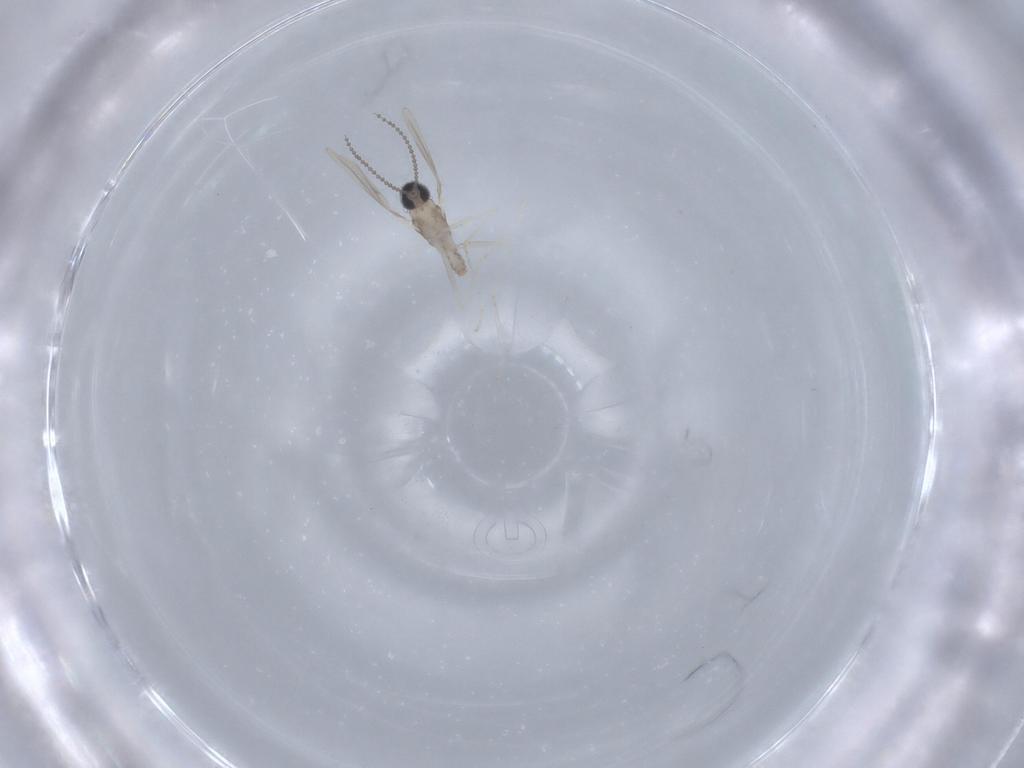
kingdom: Animalia
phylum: Arthropoda
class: Insecta
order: Diptera
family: Cecidomyiidae
